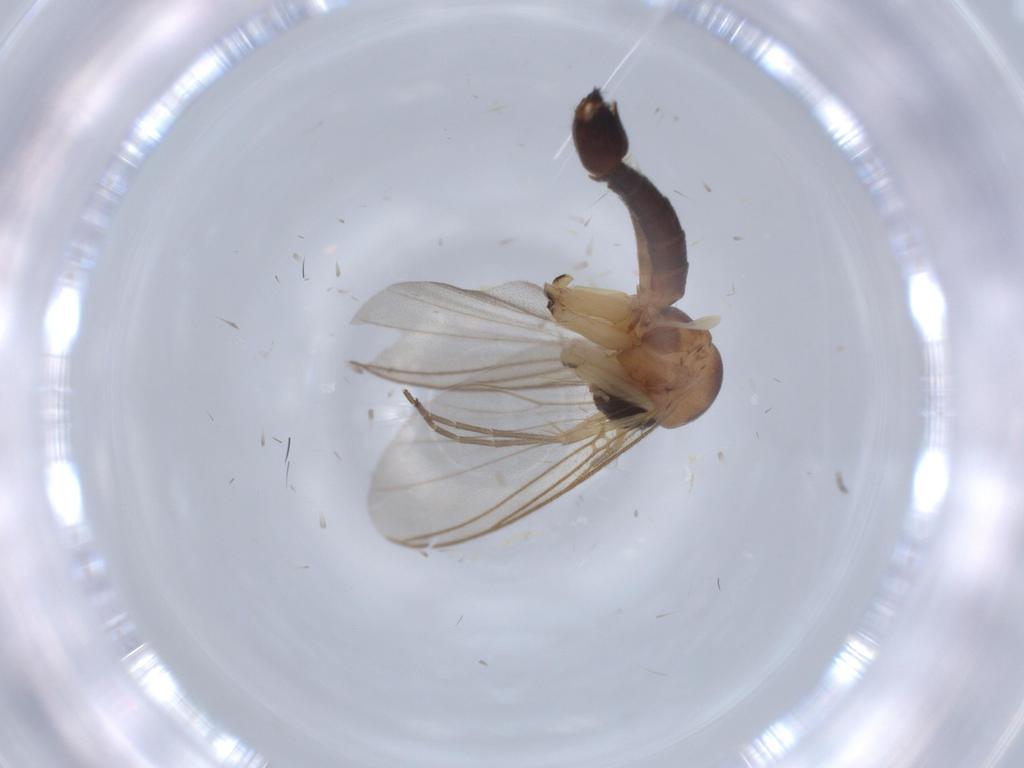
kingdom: Animalia
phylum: Arthropoda
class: Insecta
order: Diptera
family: Mycetophilidae
